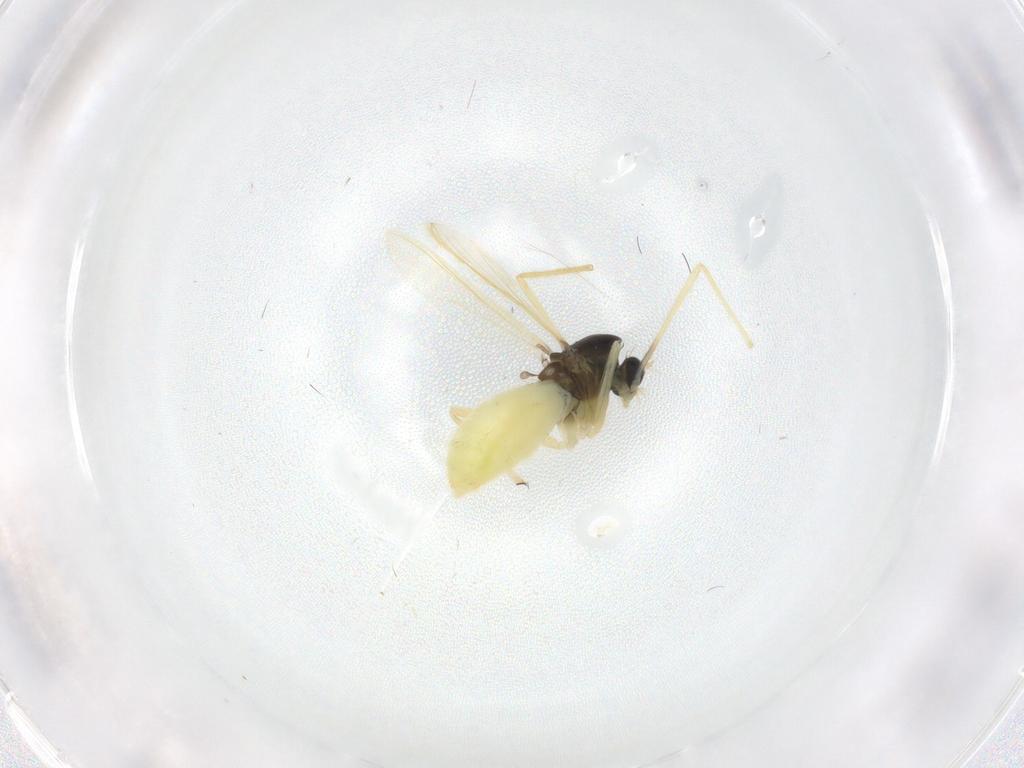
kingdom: Animalia
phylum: Arthropoda
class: Insecta
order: Diptera
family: Chironomidae
